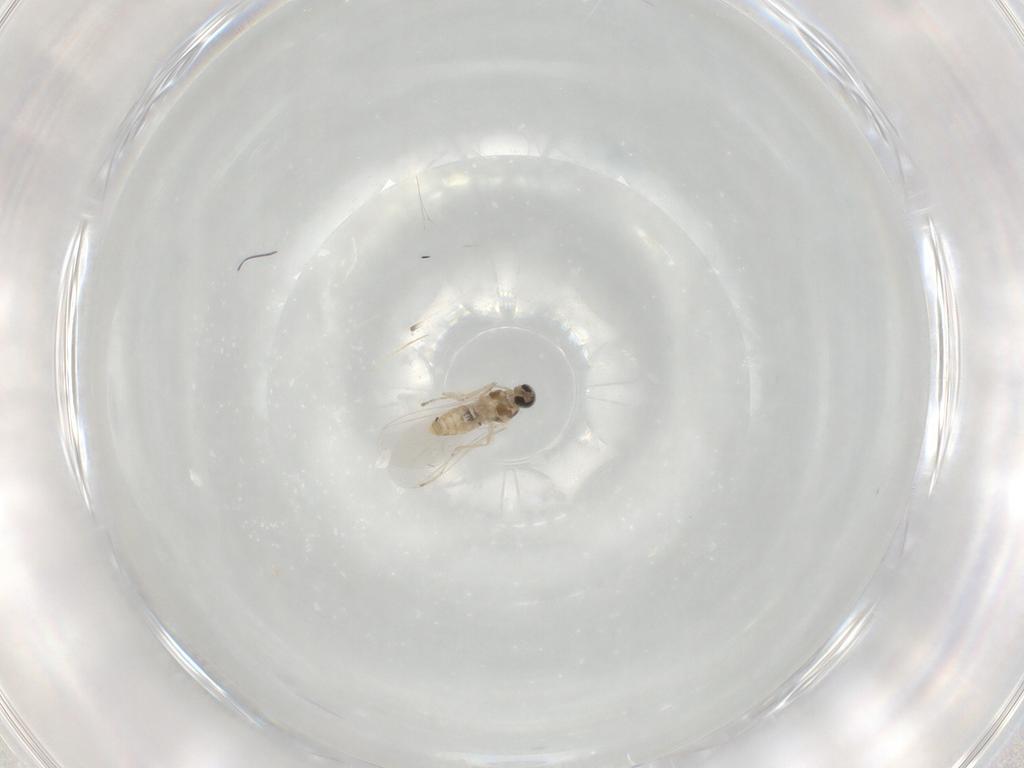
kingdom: Animalia
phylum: Arthropoda
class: Insecta
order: Diptera
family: Cecidomyiidae
